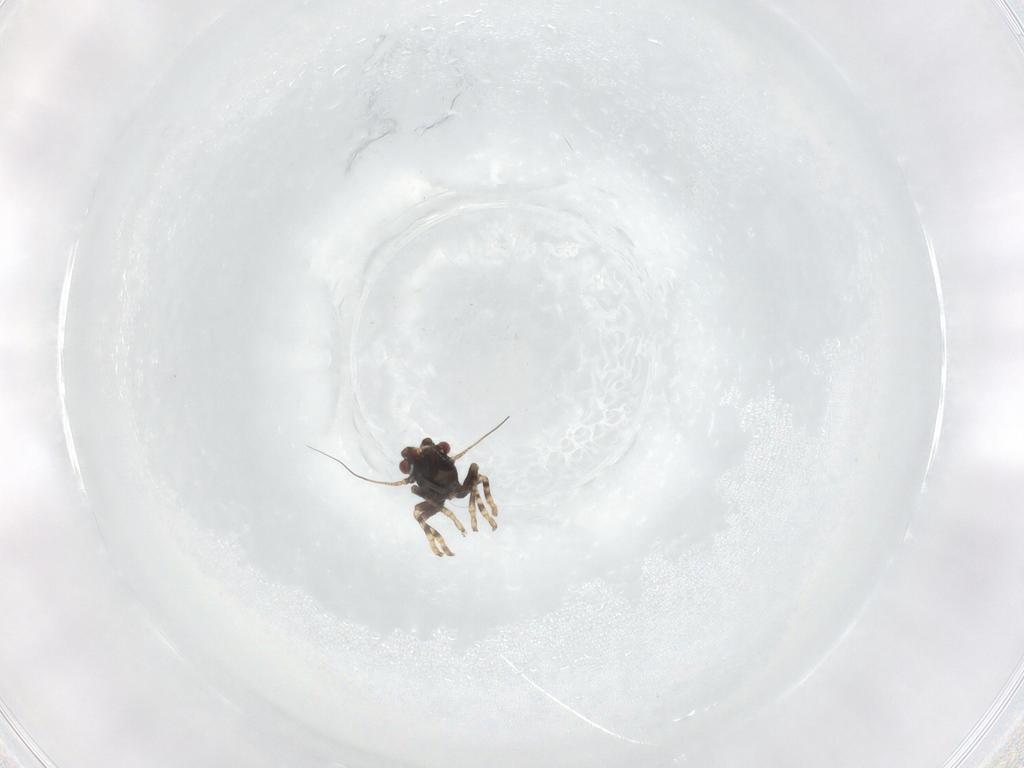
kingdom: Animalia
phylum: Arthropoda
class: Insecta
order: Hemiptera
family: Cicadellidae
